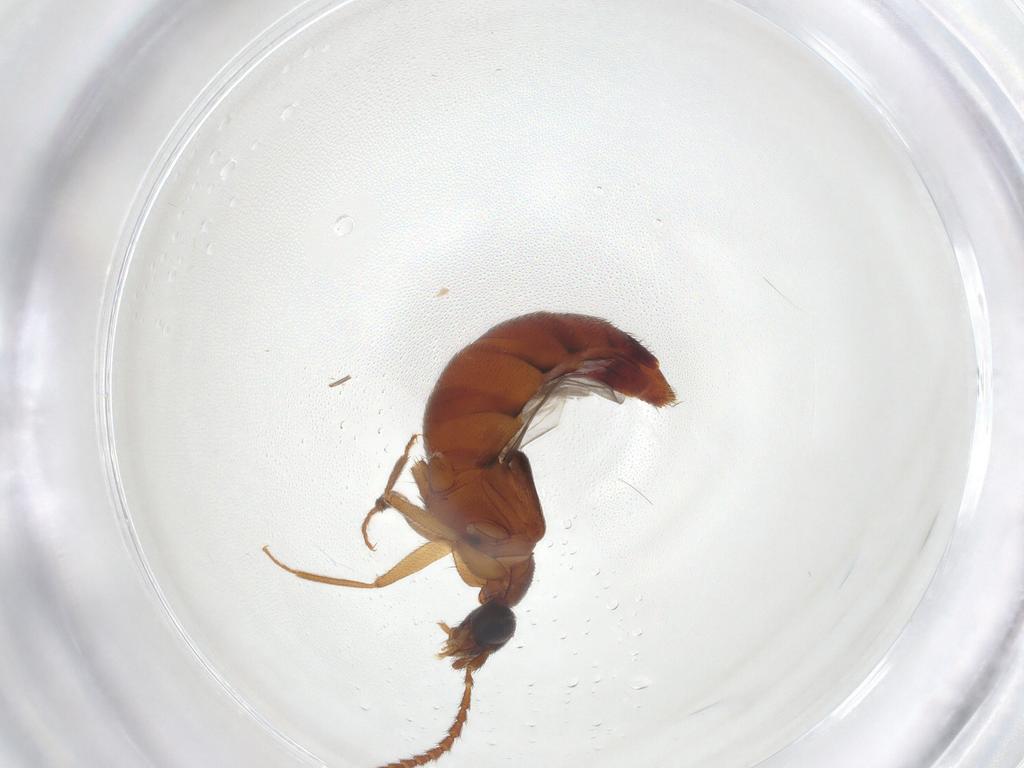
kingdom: Animalia
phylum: Arthropoda
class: Insecta
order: Coleoptera
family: Staphylinidae
